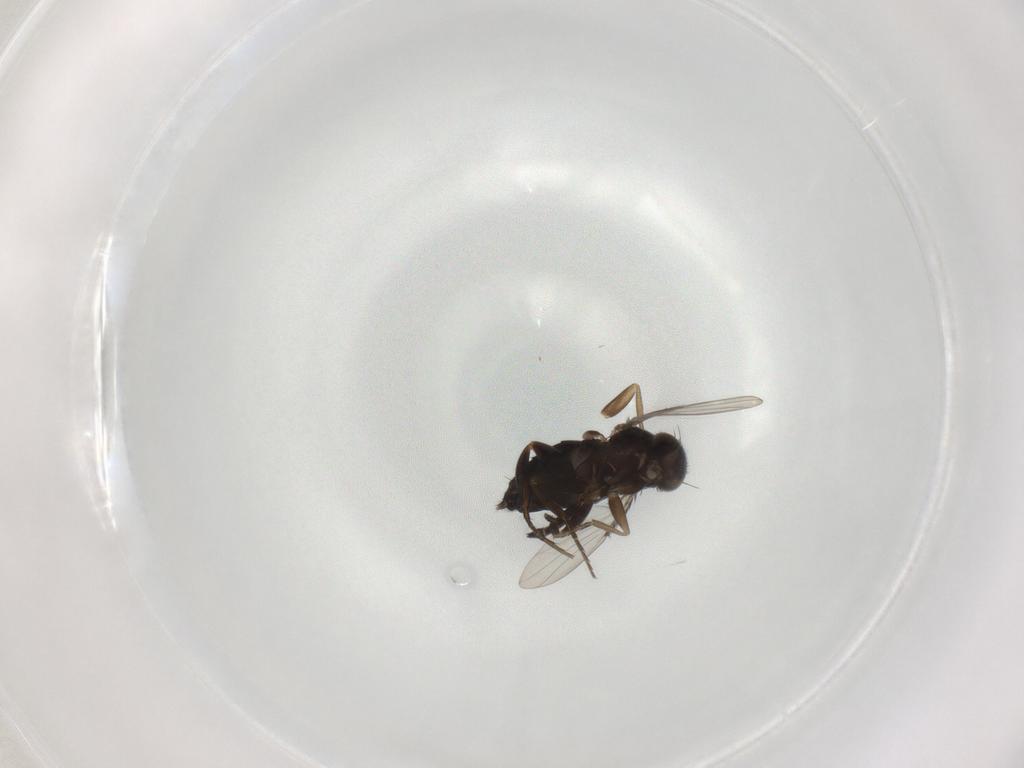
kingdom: Animalia
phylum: Arthropoda
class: Insecta
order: Diptera
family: Phoridae
